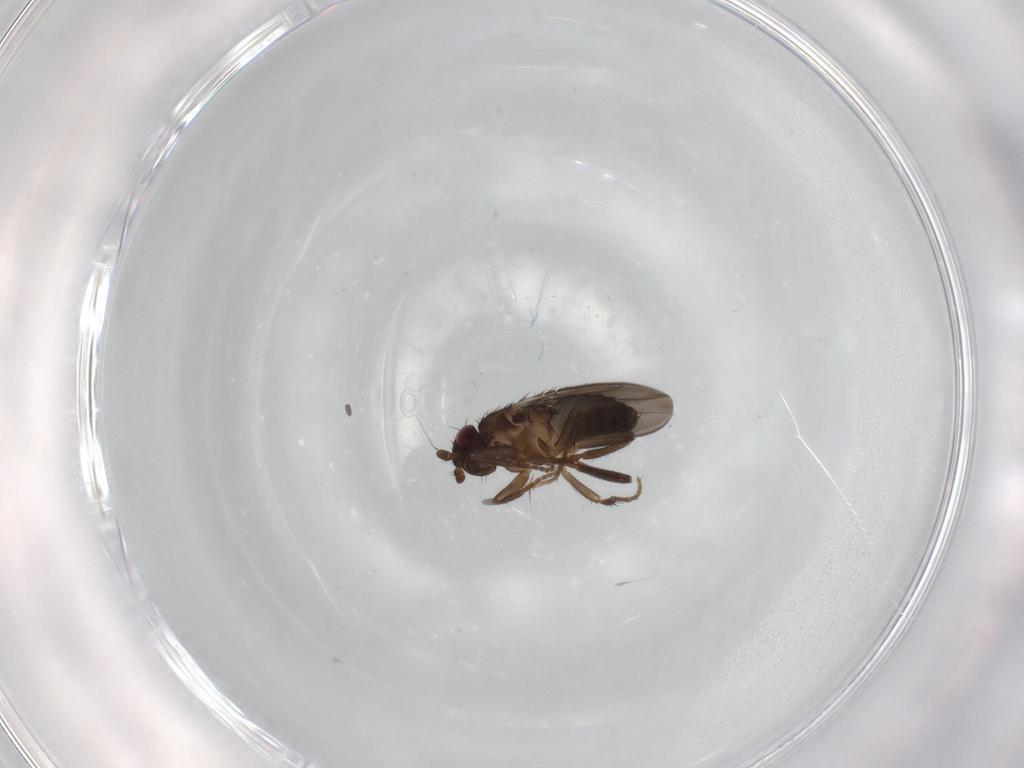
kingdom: Animalia
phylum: Arthropoda
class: Insecta
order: Diptera
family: Sphaeroceridae
